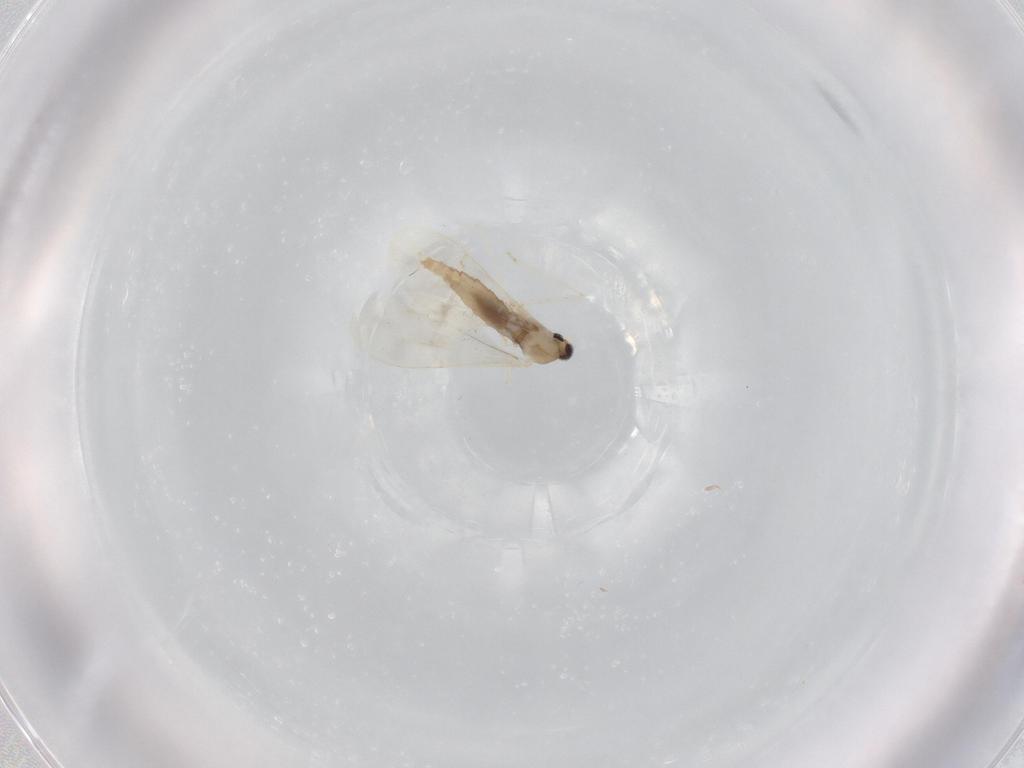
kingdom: Animalia
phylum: Arthropoda
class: Insecta
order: Diptera
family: Cecidomyiidae
